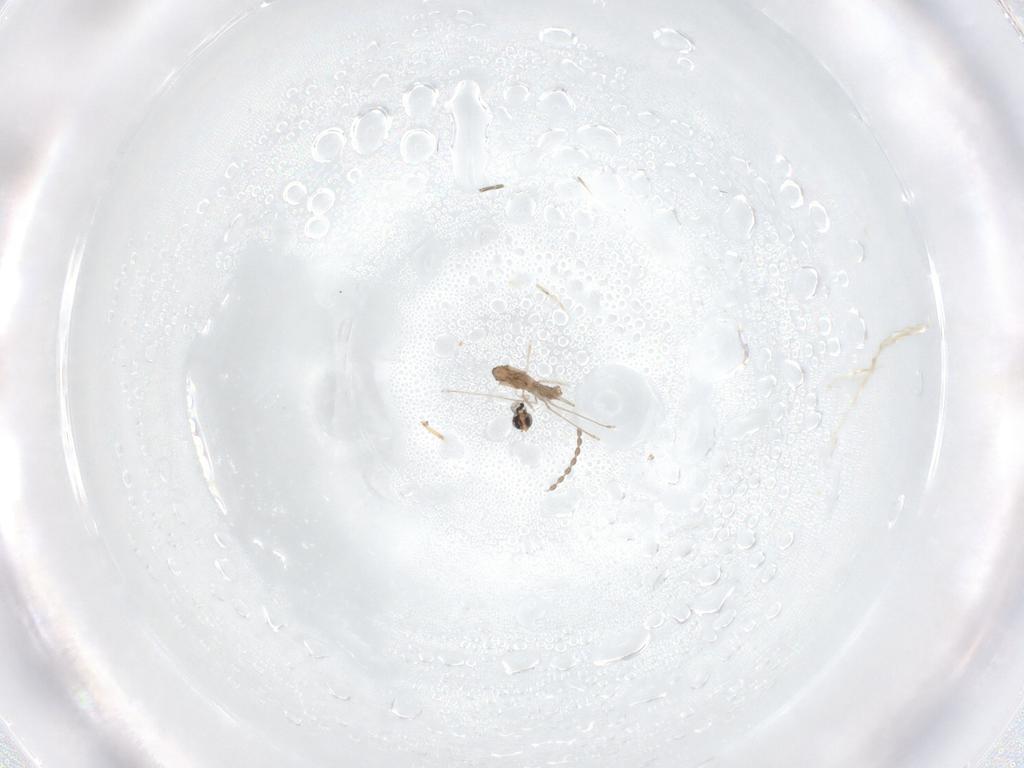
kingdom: Animalia
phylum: Arthropoda
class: Insecta
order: Diptera
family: Cecidomyiidae
